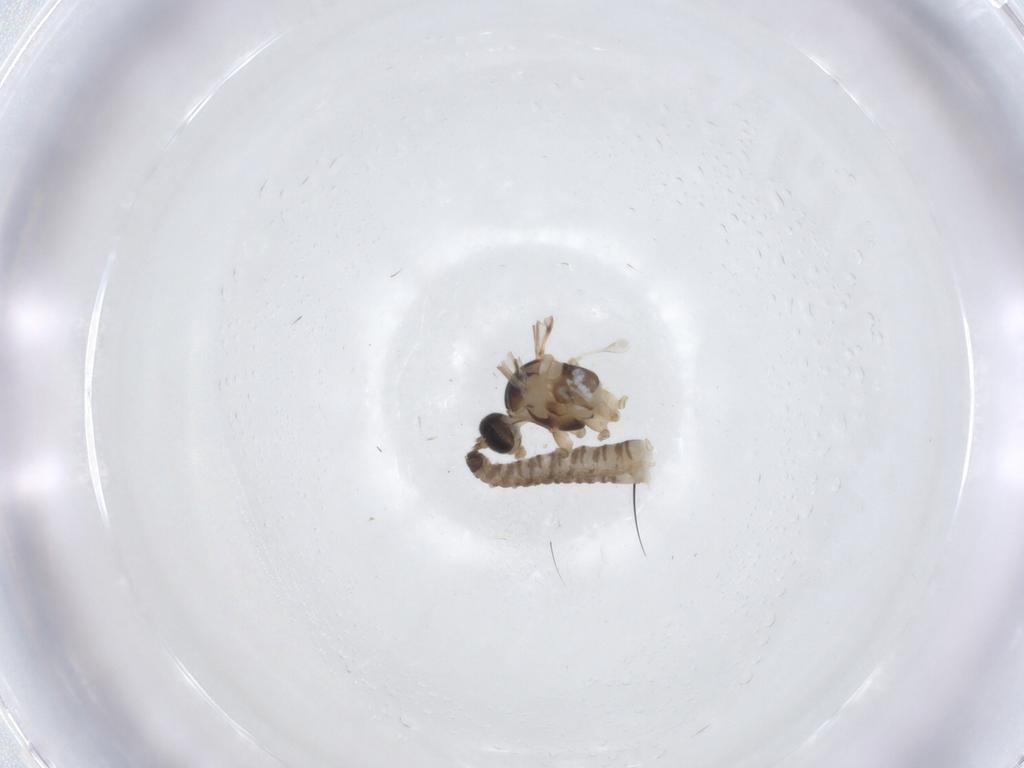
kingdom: Animalia
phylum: Arthropoda
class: Insecta
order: Diptera
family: Cecidomyiidae
